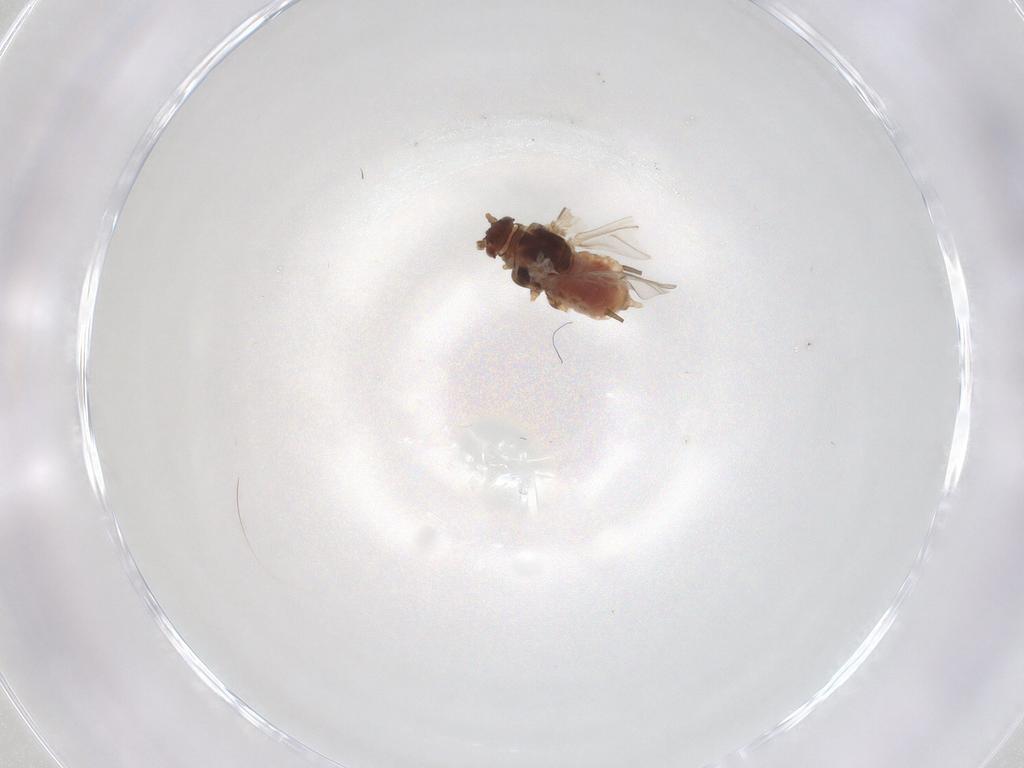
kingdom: Animalia
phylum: Arthropoda
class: Insecta
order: Hemiptera
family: Aphididae
